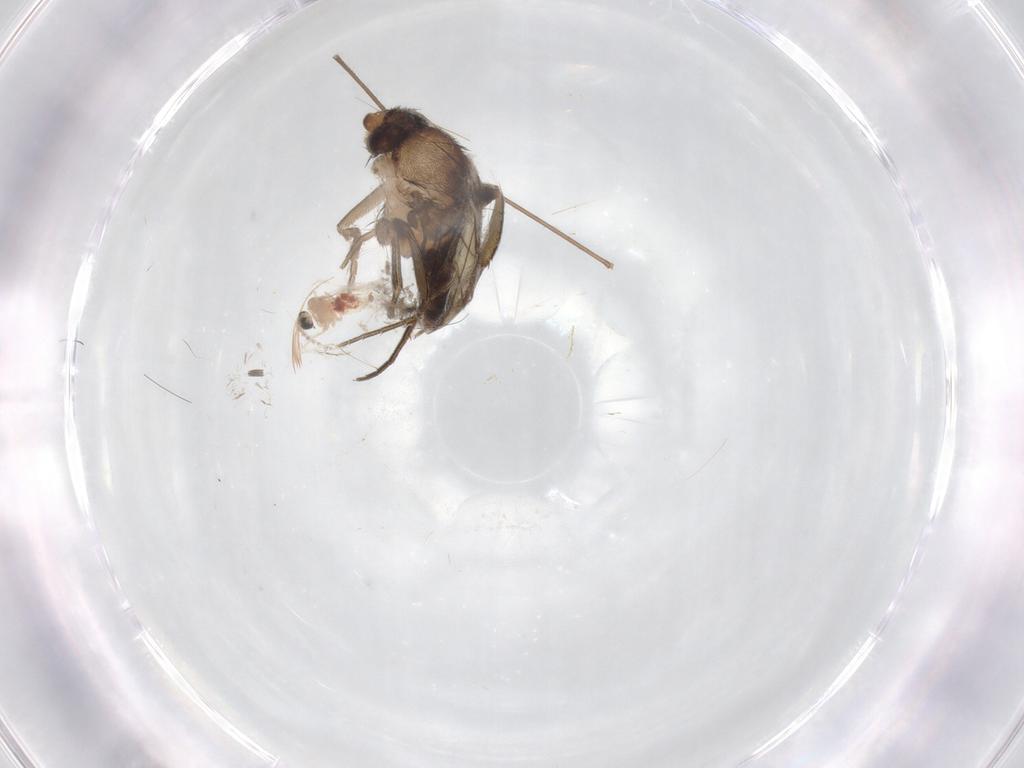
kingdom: Animalia
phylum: Arthropoda
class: Insecta
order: Diptera
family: Phoridae
